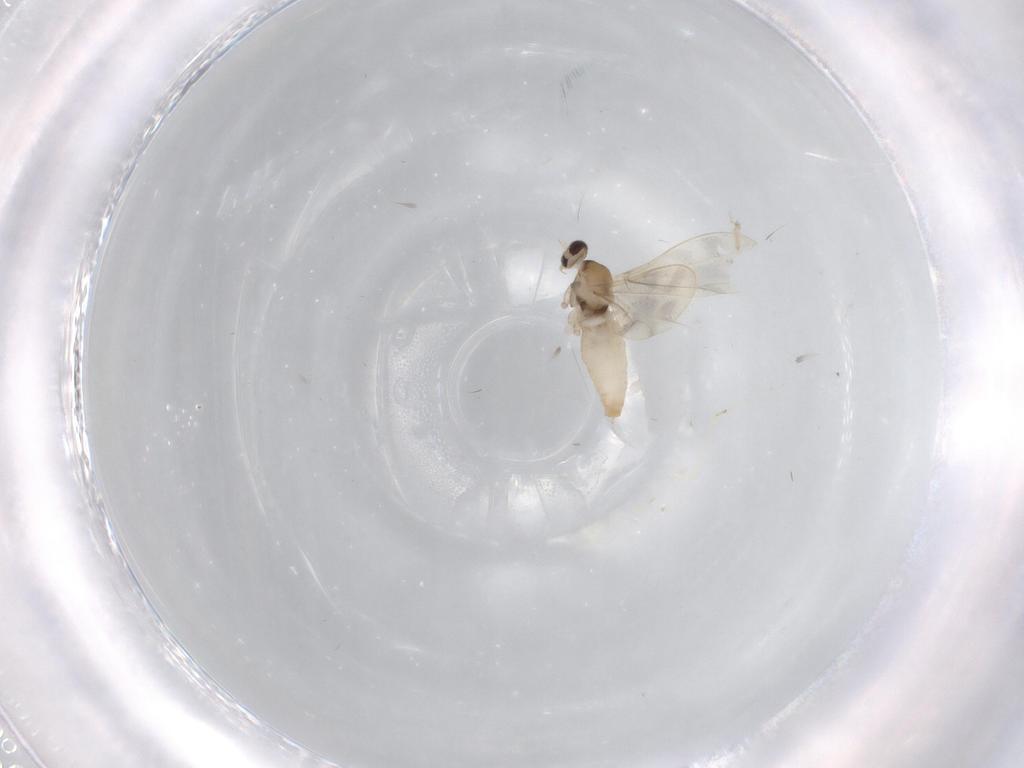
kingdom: Animalia
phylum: Arthropoda
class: Insecta
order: Diptera
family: Cecidomyiidae
